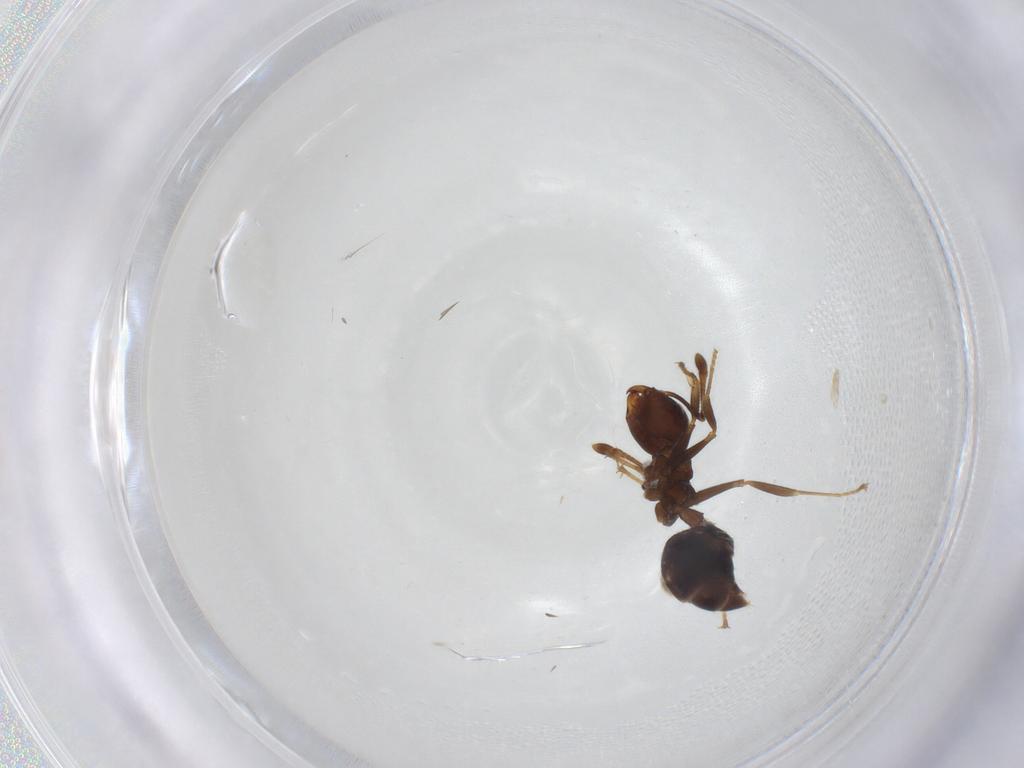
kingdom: Animalia
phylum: Arthropoda
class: Insecta
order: Hymenoptera
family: Formicidae
